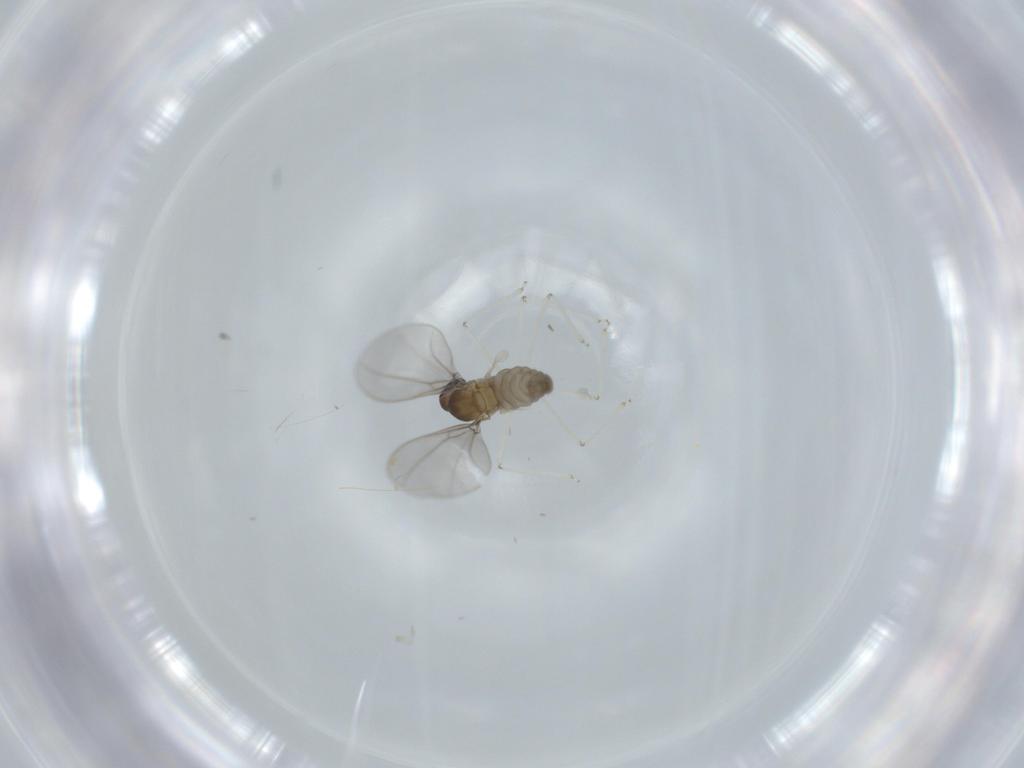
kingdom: Animalia
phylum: Arthropoda
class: Insecta
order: Diptera
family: Cecidomyiidae
